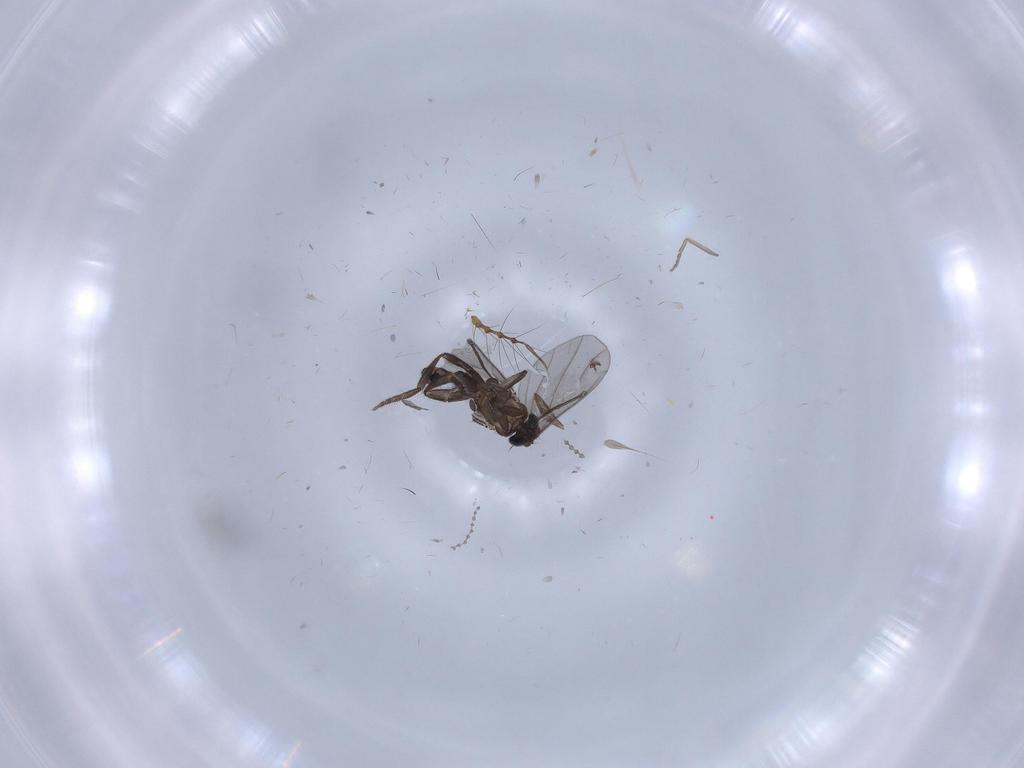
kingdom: Animalia
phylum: Arthropoda
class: Insecta
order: Diptera
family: Cecidomyiidae
